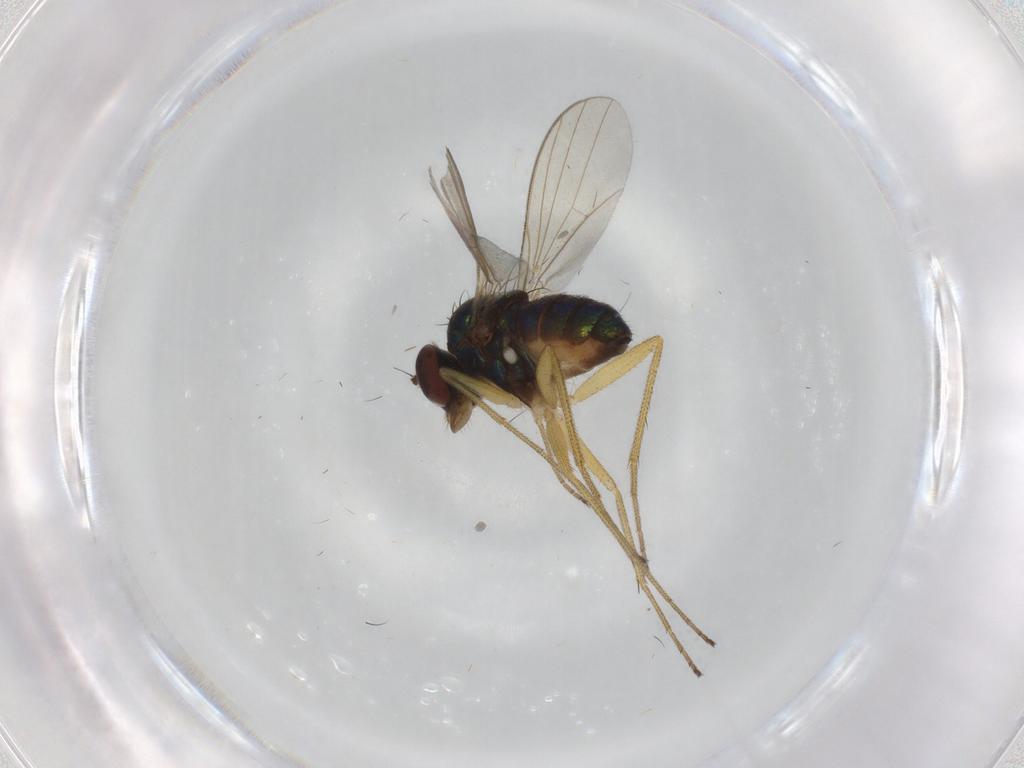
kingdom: Animalia
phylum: Arthropoda
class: Insecta
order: Diptera
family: Dolichopodidae
